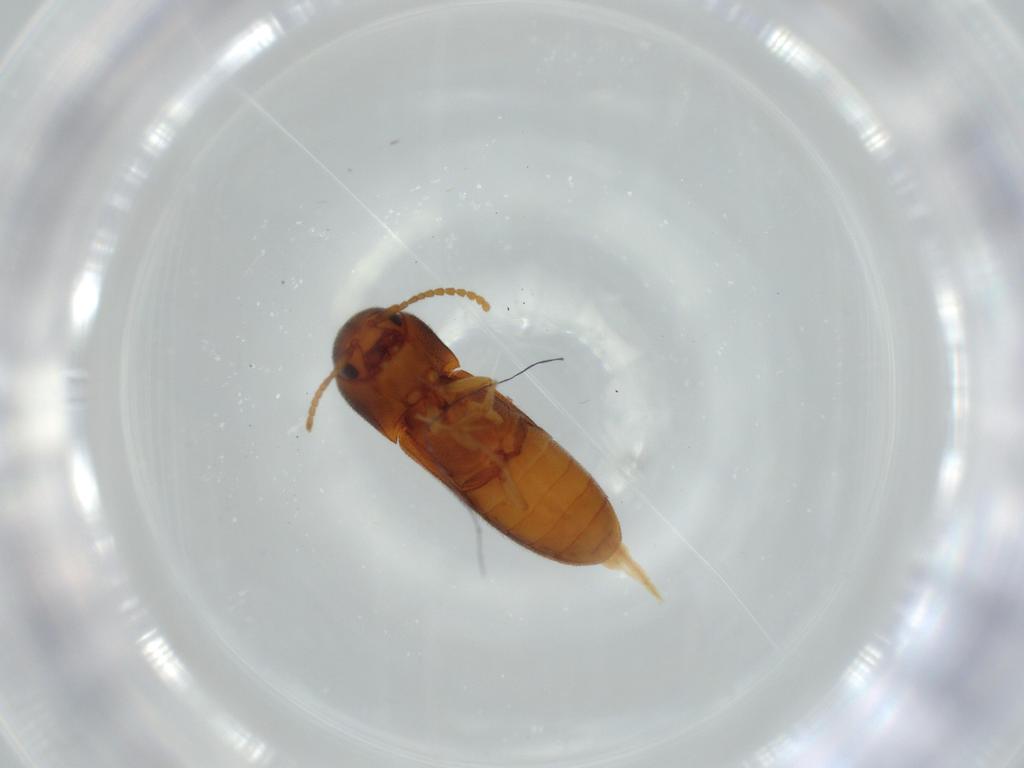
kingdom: Animalia
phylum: Arthropoda
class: Insecta
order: Coleoptera
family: Eucnemidae
